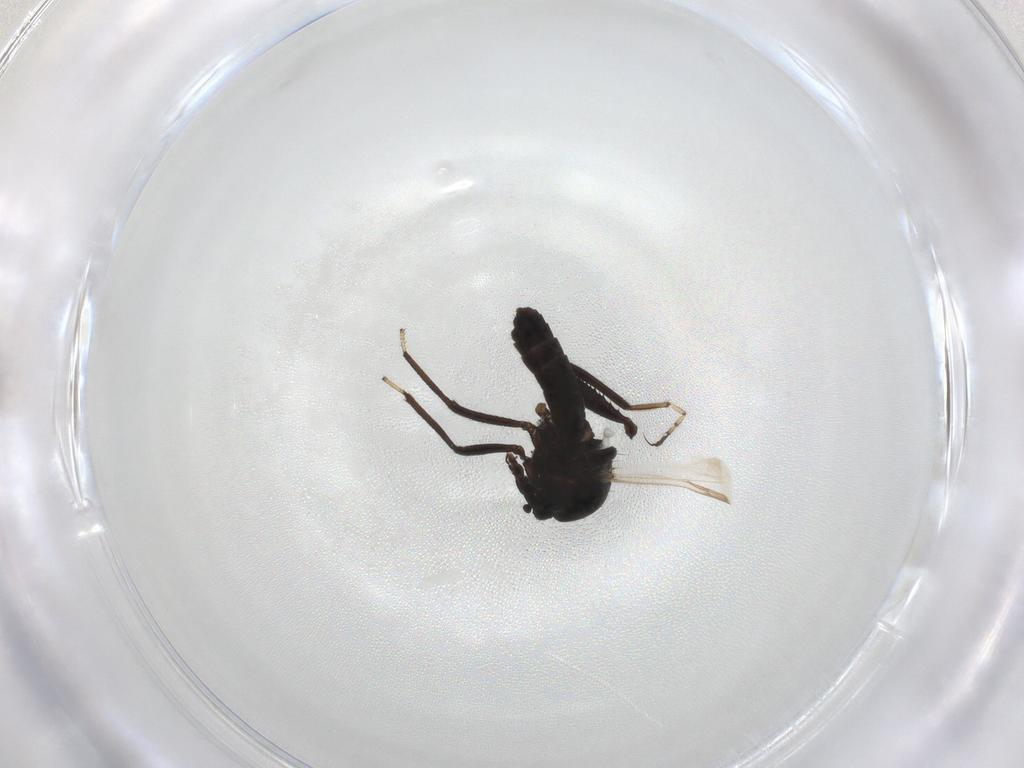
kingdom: Animalia
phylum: Arthropoda
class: Insecta
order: Diptera
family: Ceratopogonidae
